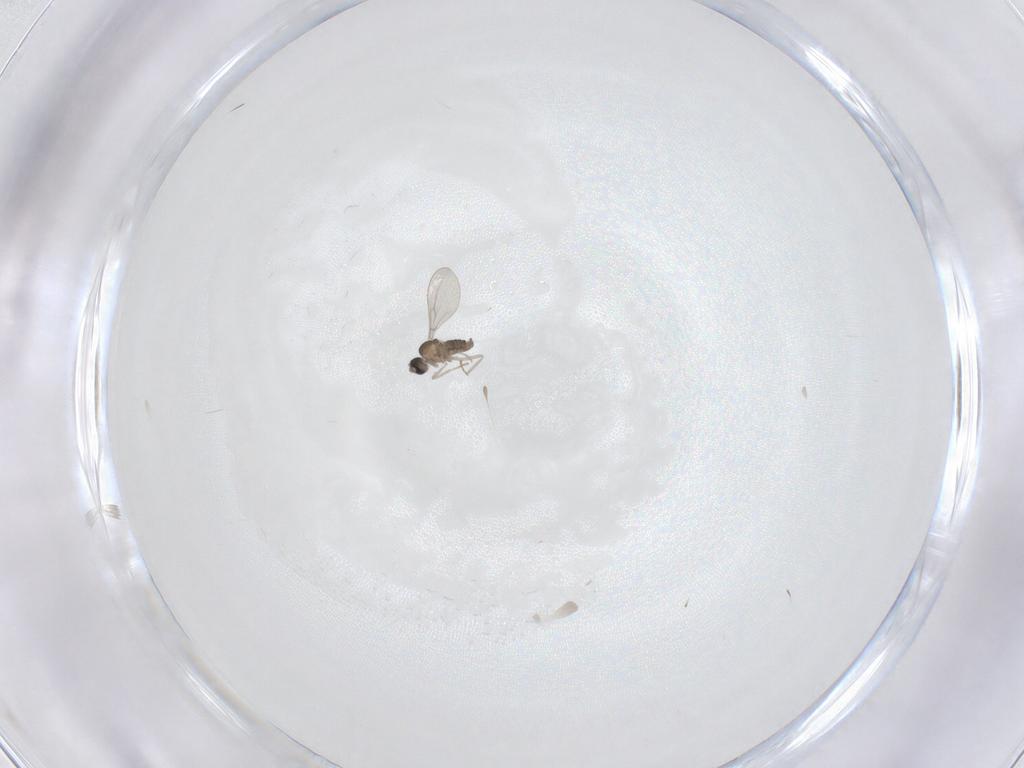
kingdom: Animalia
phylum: Arthropoda
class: Insecta
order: Diptera
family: Cecidomyiidae
